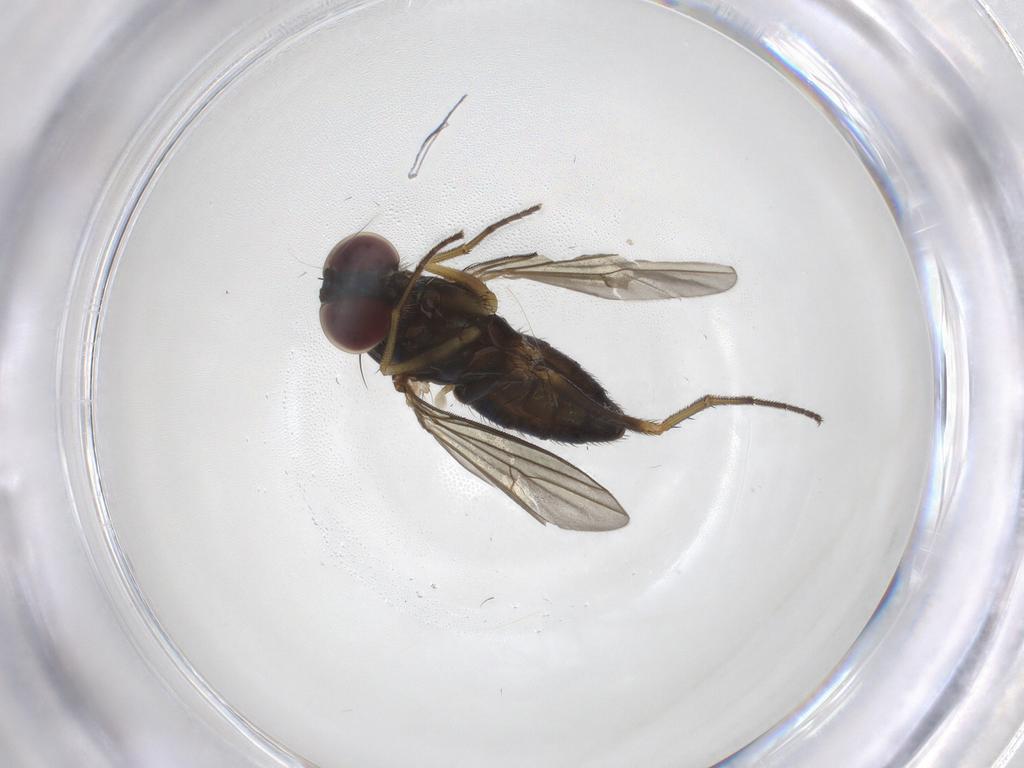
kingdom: Animalia
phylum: Arthropoda
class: Insecta
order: Diptera
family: Dolichopodidae
